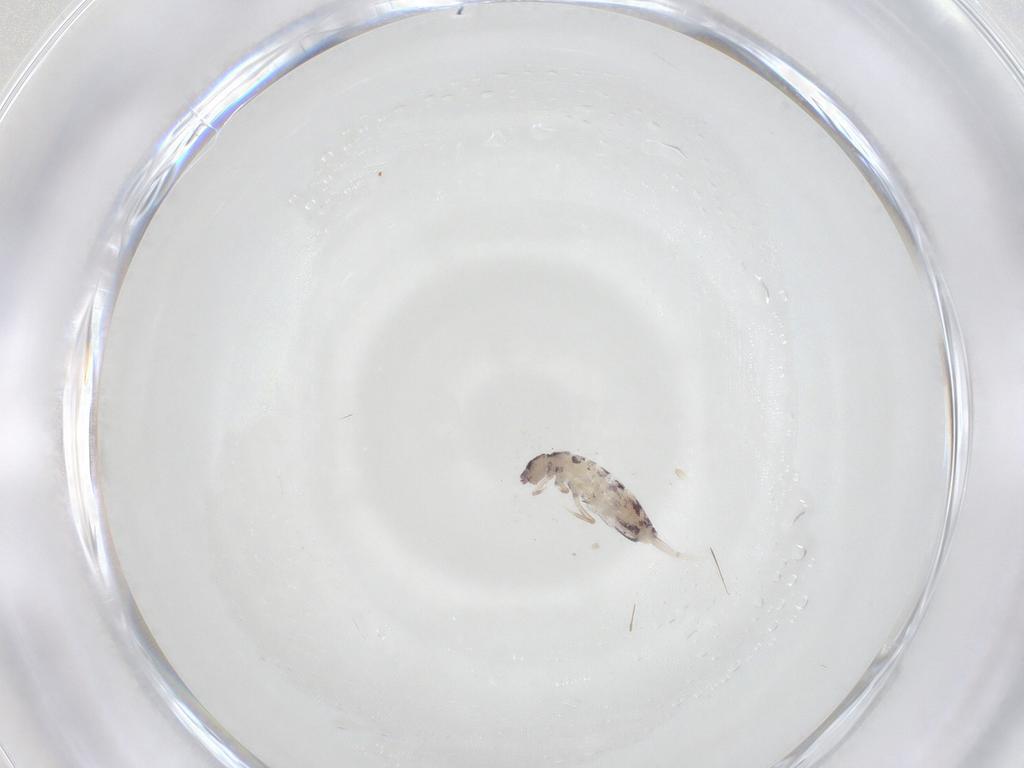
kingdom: Animalia
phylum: Arthropoda
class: Collembola
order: Entomobryomorpha
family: Entomobryidae
